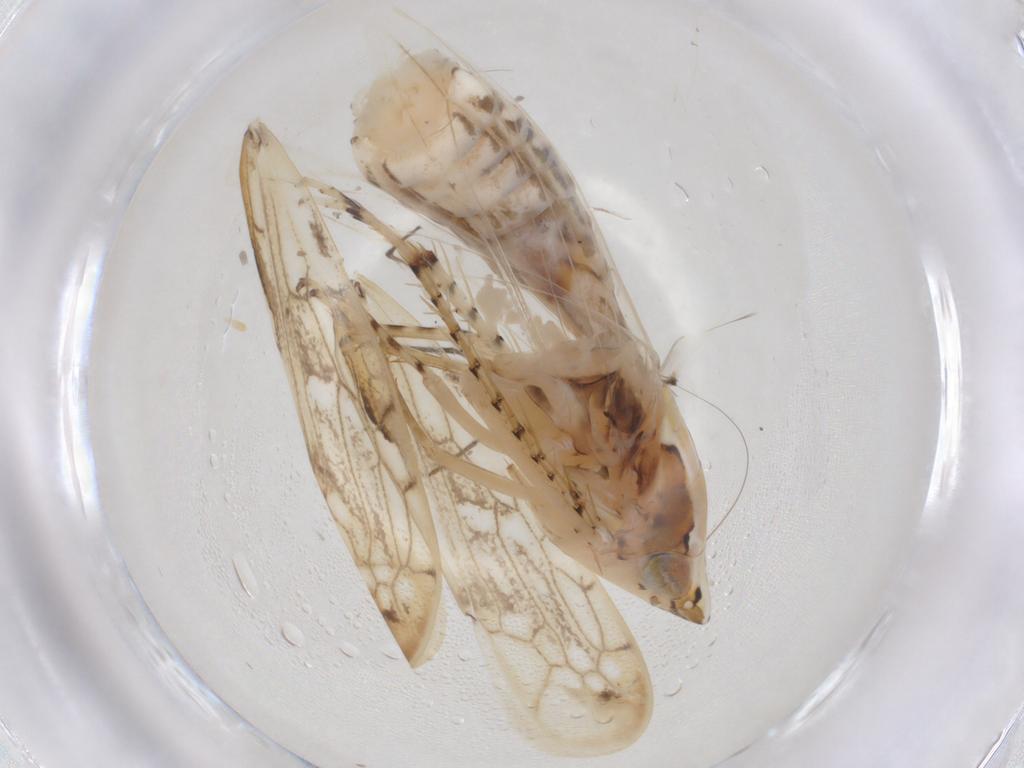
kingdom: Animalia
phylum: Arthropoda
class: Insecta
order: Hemiptera
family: Cicadellidae
